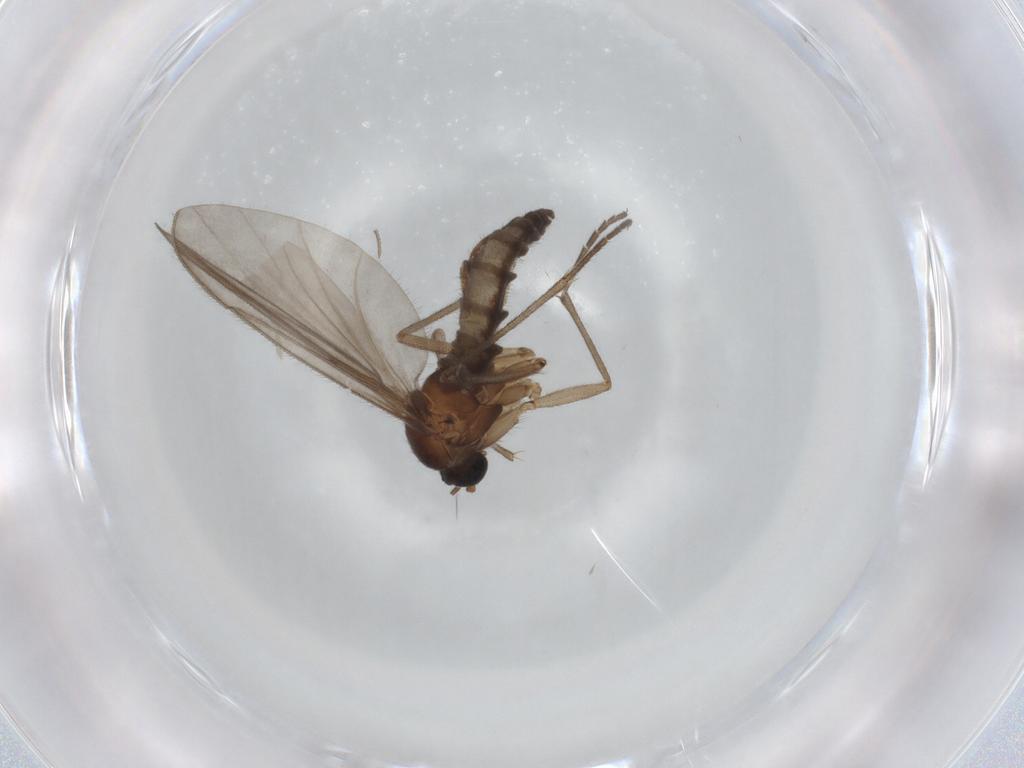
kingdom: Animalia
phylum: Arthropoda
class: Insecta
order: Diptera
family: Sciaridae
